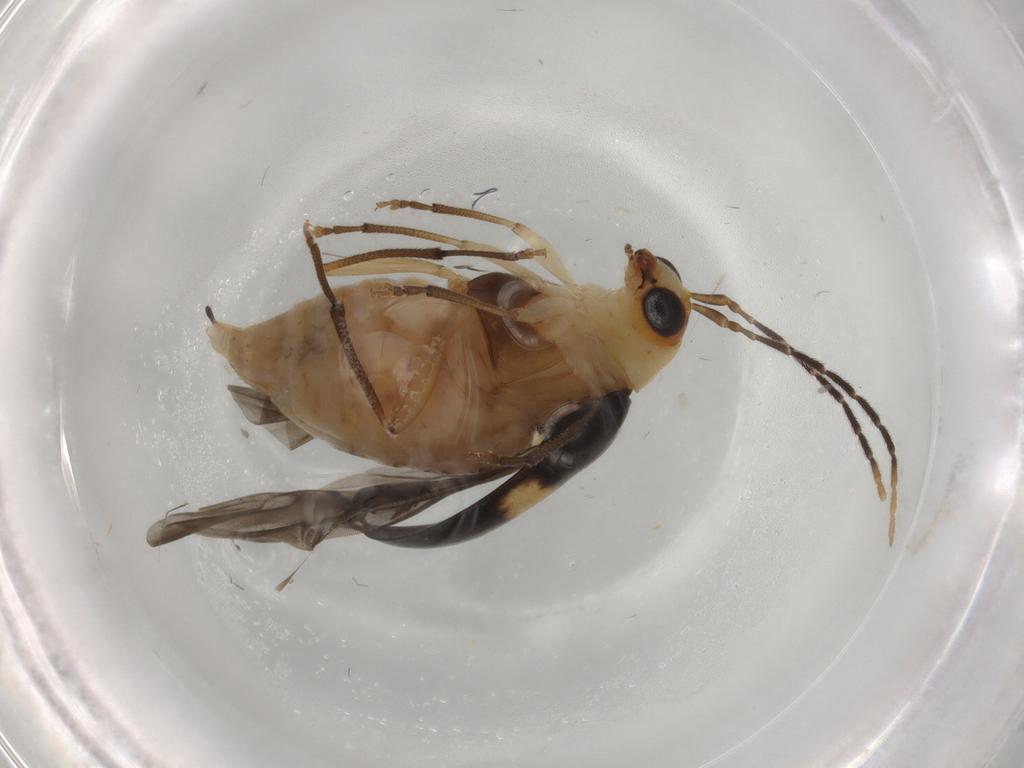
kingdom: Animalia
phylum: Arthropoda
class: Insecta
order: Coleoptera
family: Chrysomelidae
